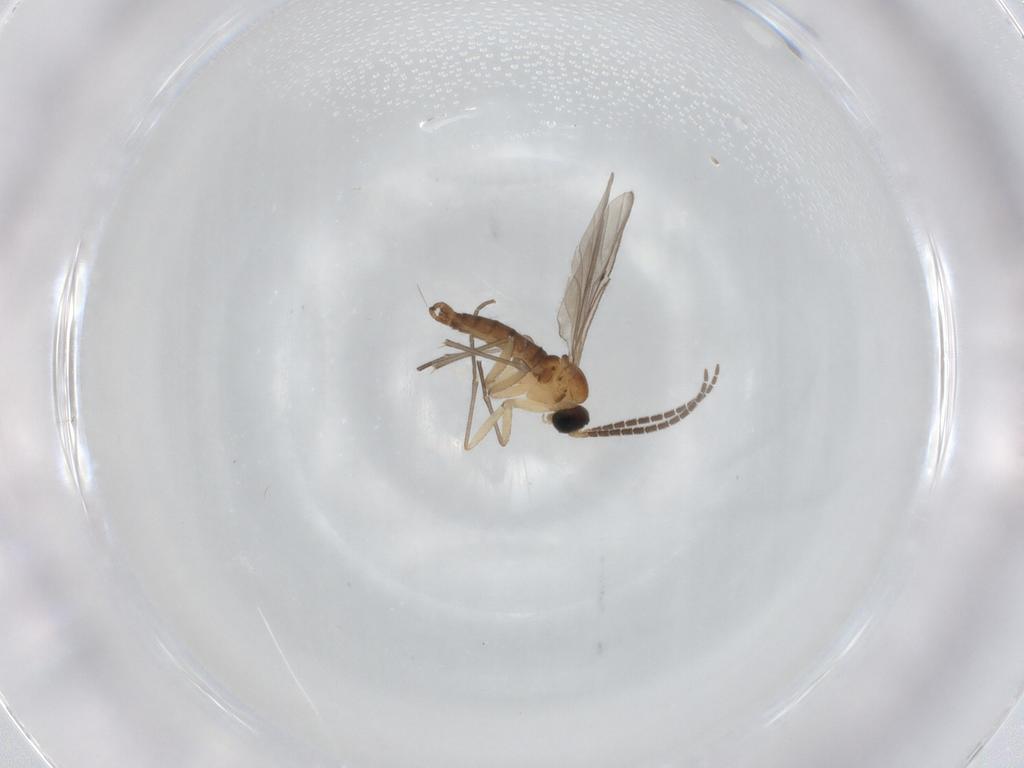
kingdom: Animalia
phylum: Arthropoda
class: Insecta
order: Diptera
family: Sciaridae
